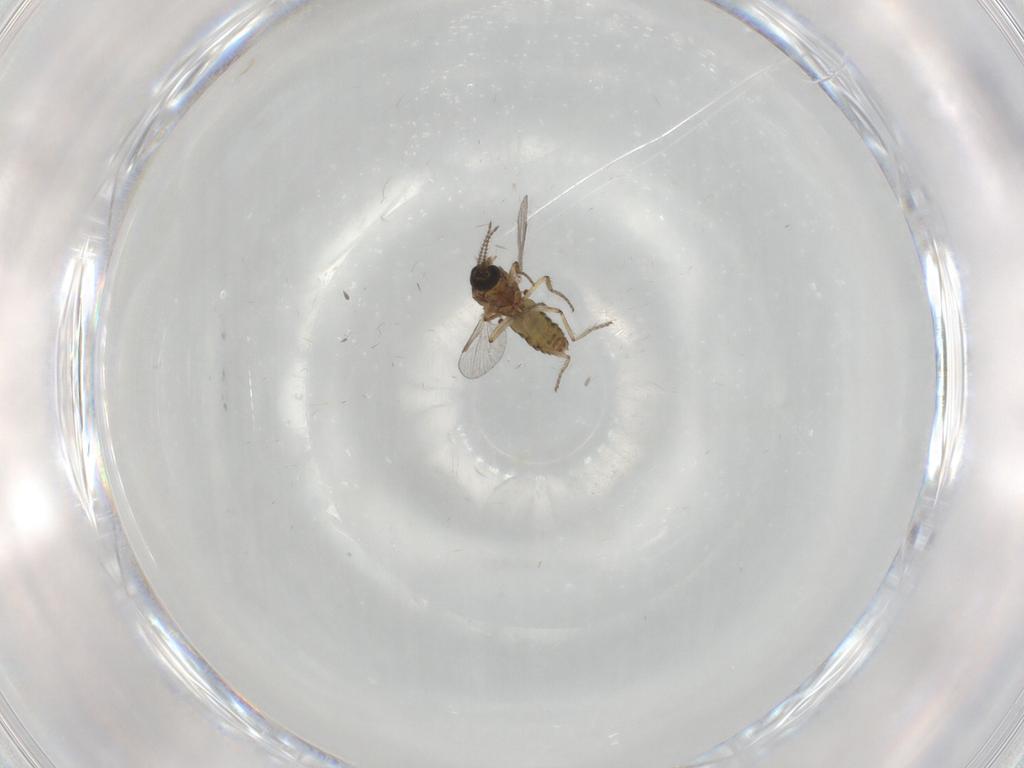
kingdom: Animalia
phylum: Arthropoda
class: Insecta
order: Diptera
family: Ceratopogonidae
